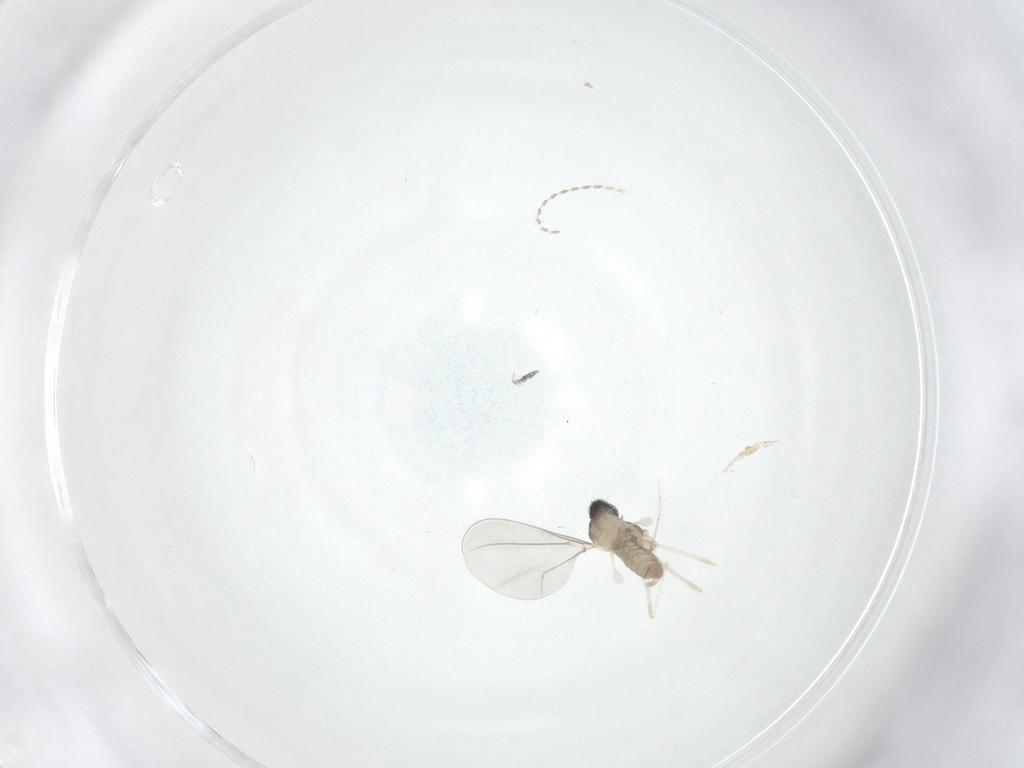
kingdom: Animalia
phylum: Arthropoda
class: Insecta
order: Diptera
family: Cecidomyiidae
